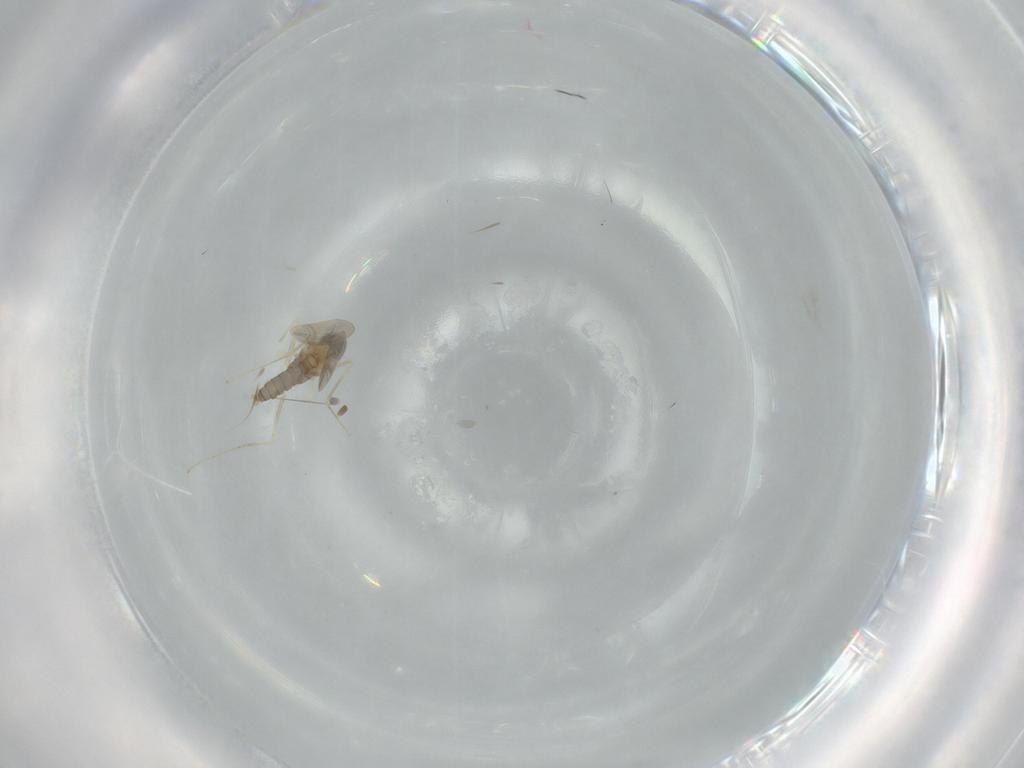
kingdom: Animalia
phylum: Arthropoda
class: Insecta
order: Diptera
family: Cecidomyiidae
